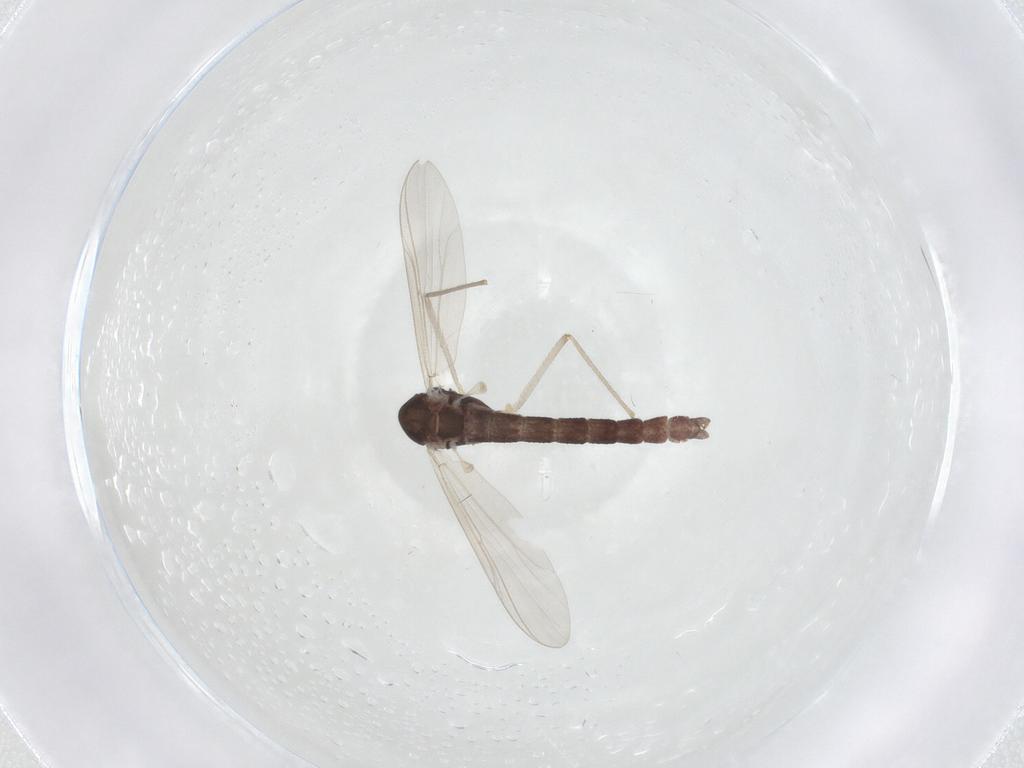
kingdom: Animalia
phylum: Arthropoda
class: Insecta
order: Diptera
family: Chironomidae
